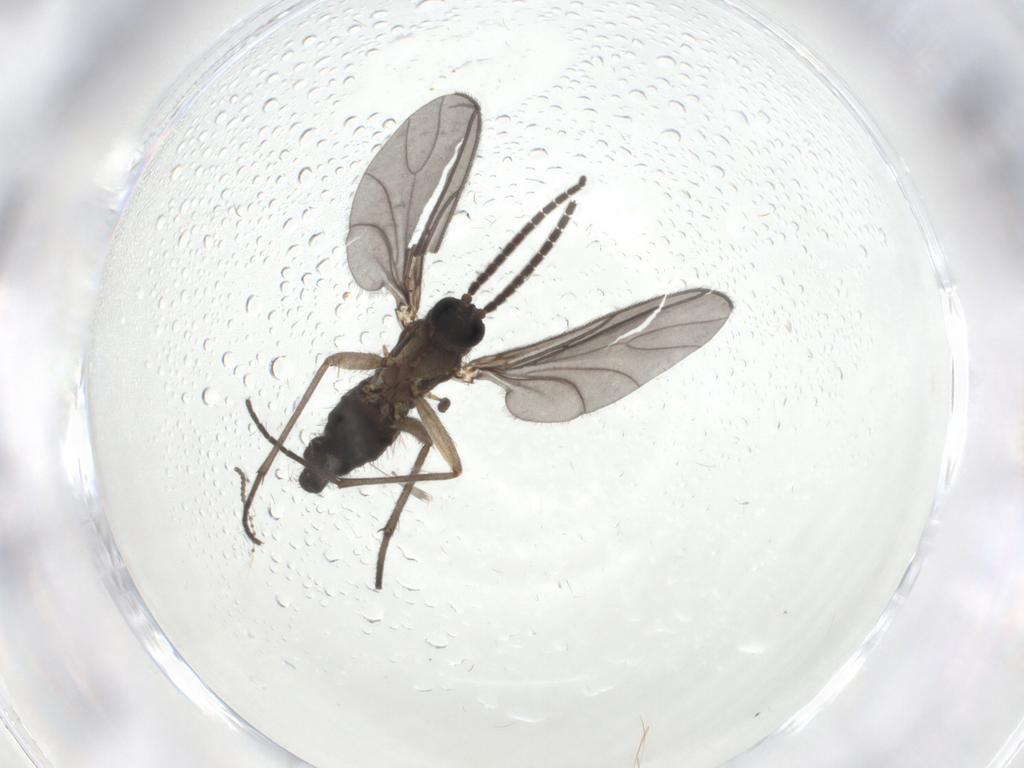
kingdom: Animalia
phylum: Arthropoda
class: Insecta
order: Diptera
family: Sciaridae
